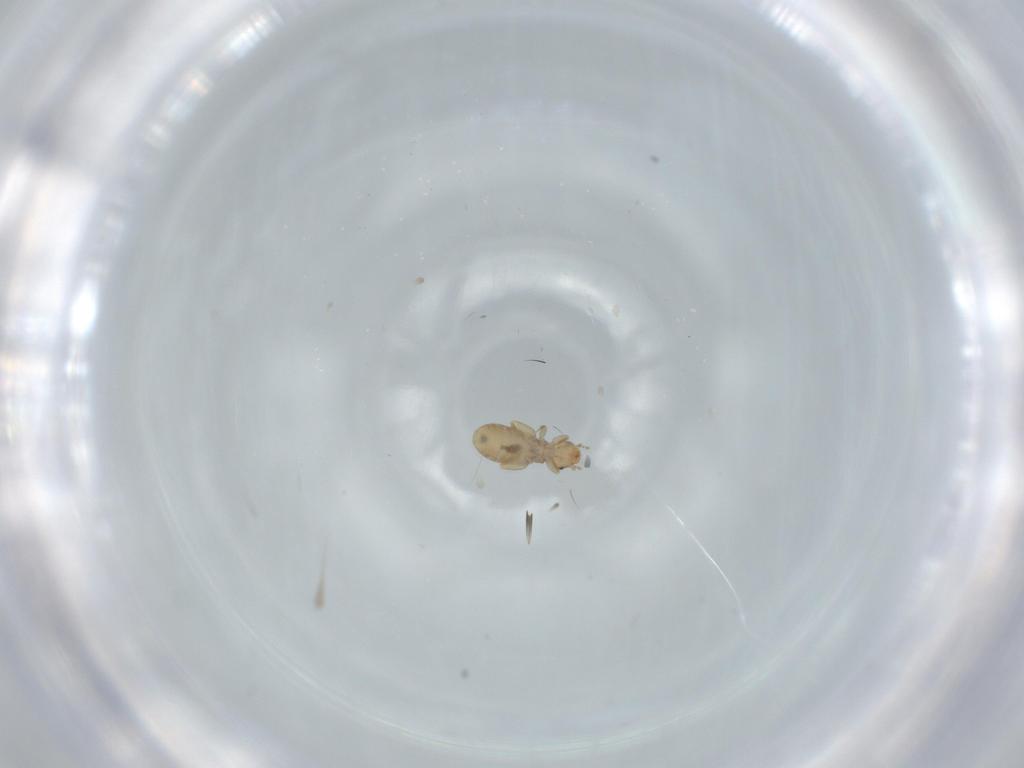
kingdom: Animalia
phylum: Arthropoda
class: Insecta
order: Psocodea
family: Liposcelididae
